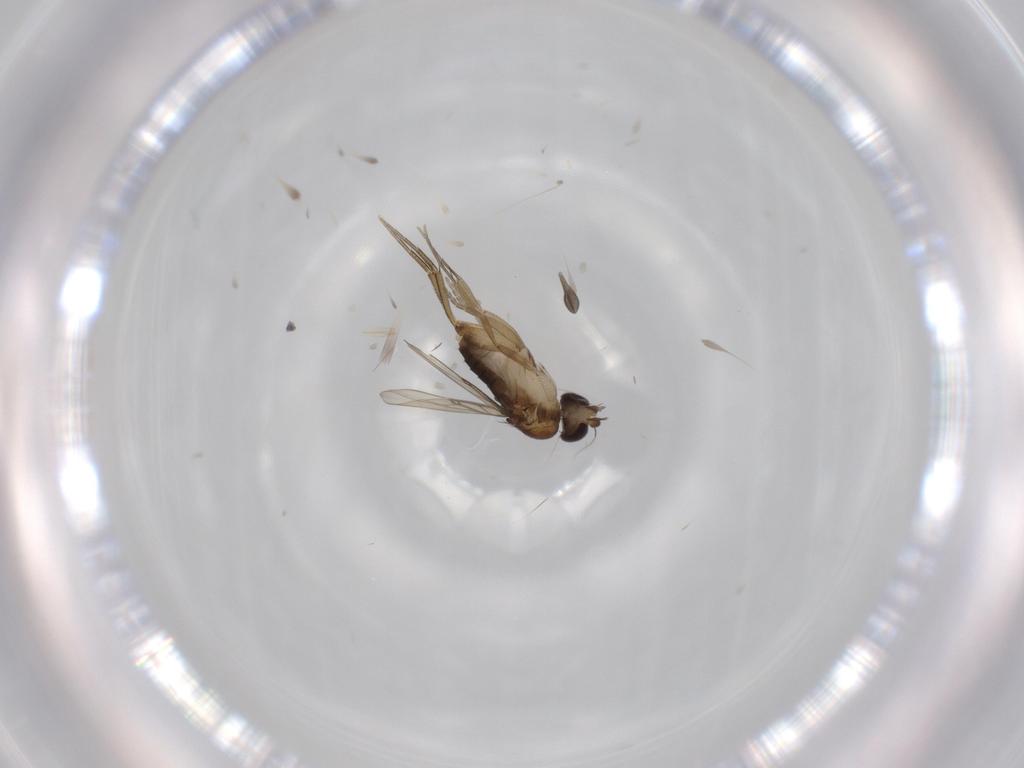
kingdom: Animalia
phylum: Arthropoda
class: Insecta
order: Diptera
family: Phoridae
